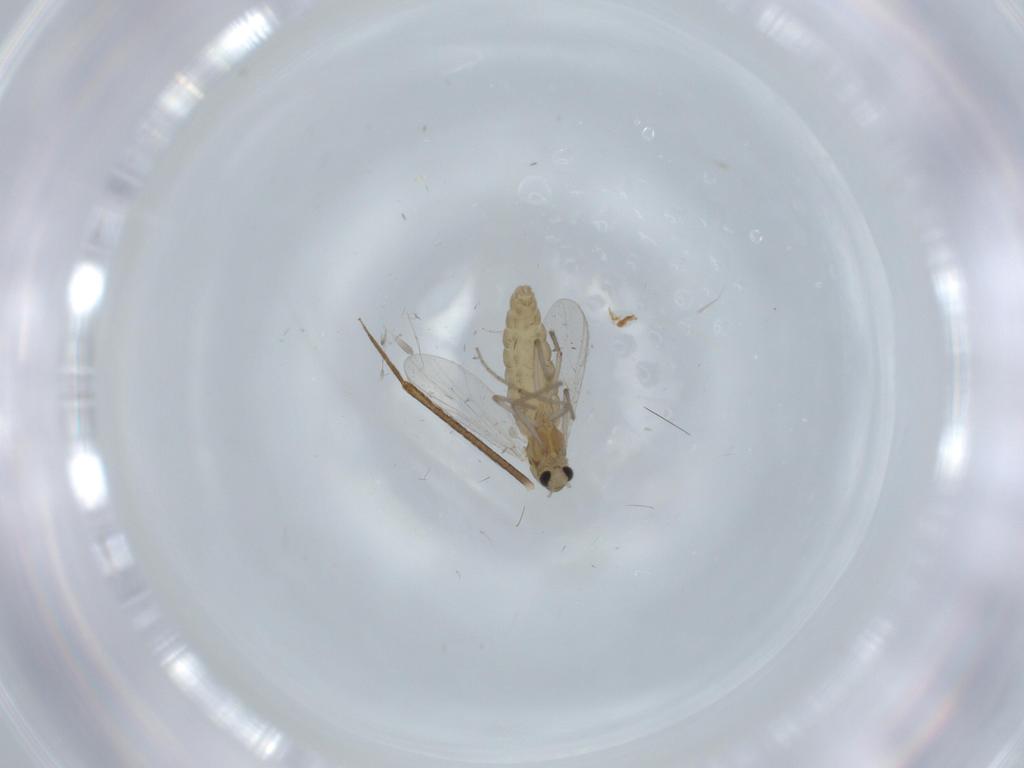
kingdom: Animalia
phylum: Arthropoda
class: Insecta
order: Diptera
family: Chironomidae
